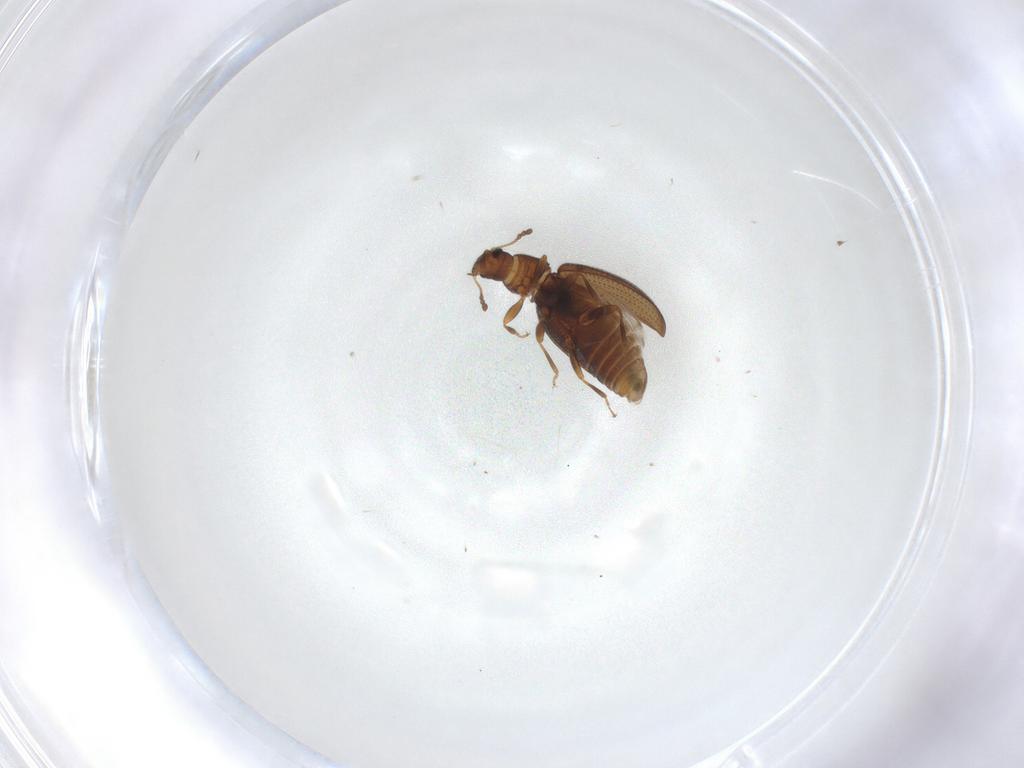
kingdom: Animalia
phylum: Arthropoda
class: Insecta
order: Coleoptera
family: Latridiidae
